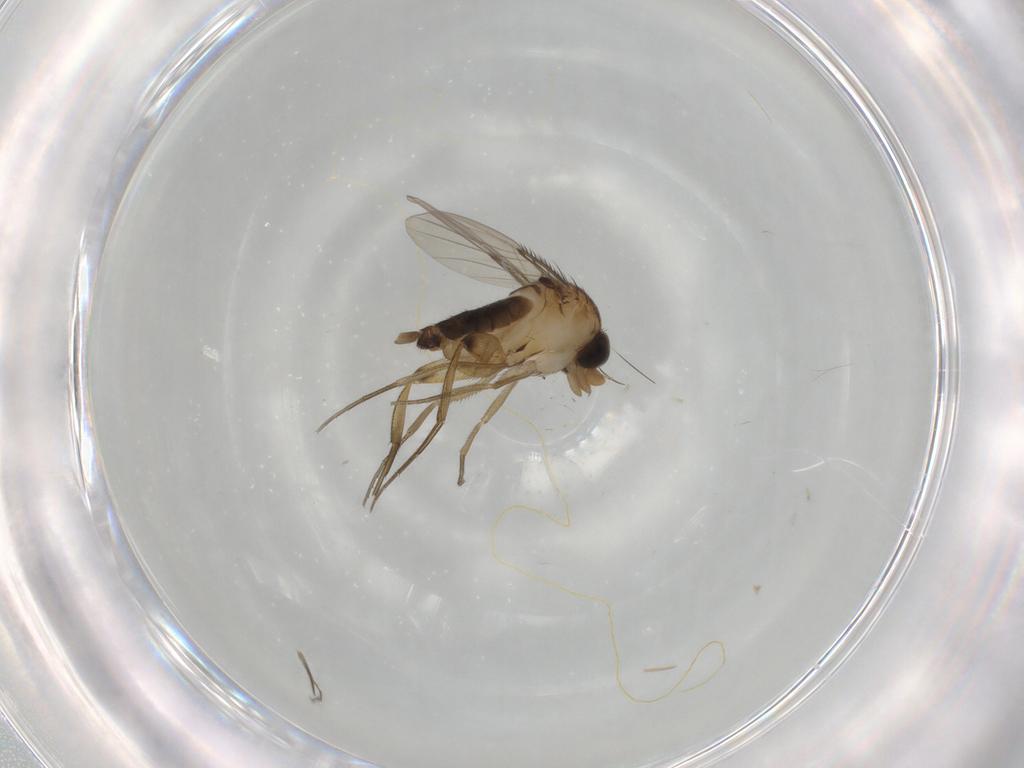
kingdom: Animalia
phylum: Arthropoda
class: Insecta
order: Diptera
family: Phoridae
